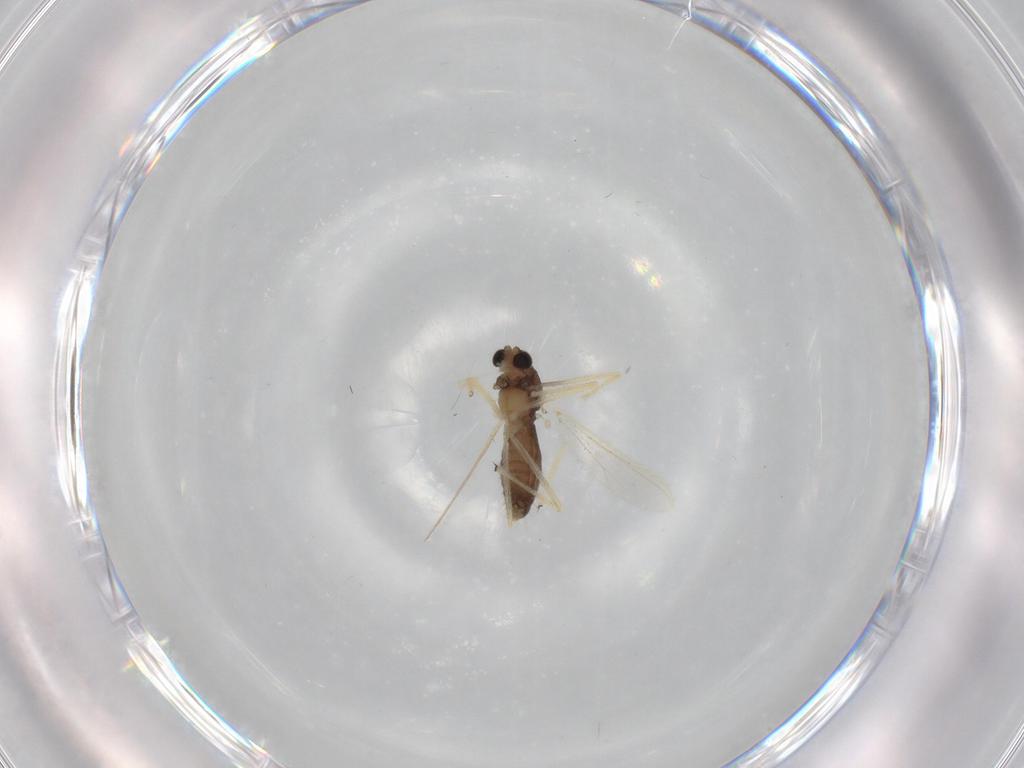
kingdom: Animalia
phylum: Arthropoda
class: Insecta
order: Diptera
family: Chironomidae
